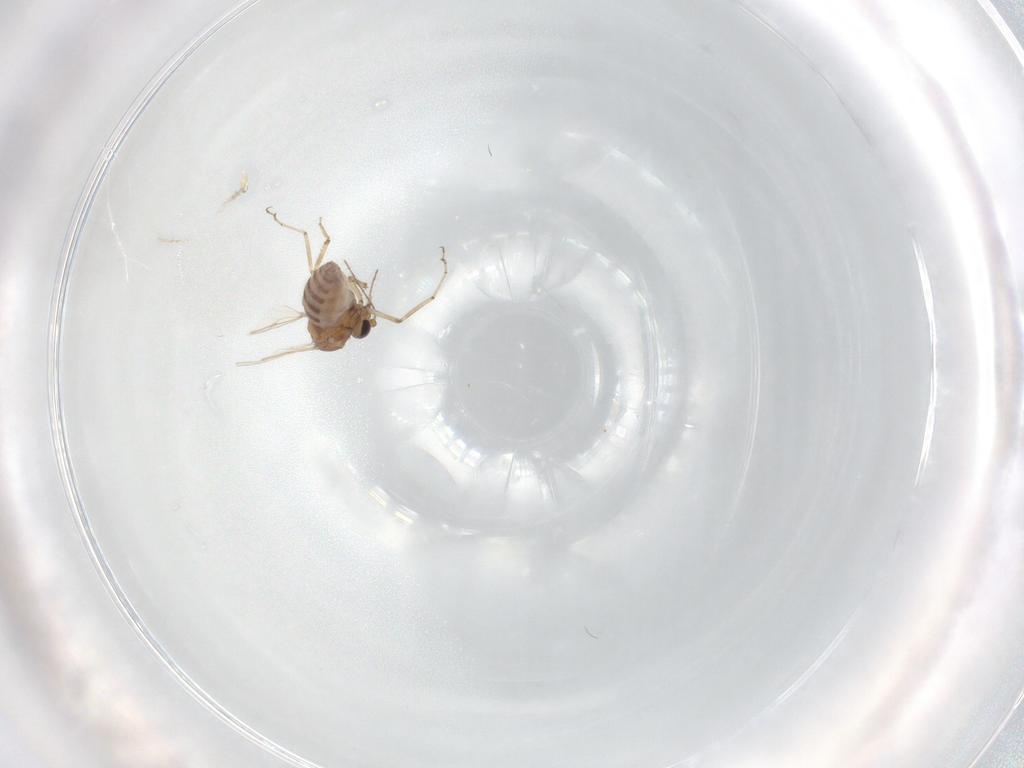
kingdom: Animalia
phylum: Arthropoda
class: Insecta
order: Diptera
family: Ceratopogonidae
